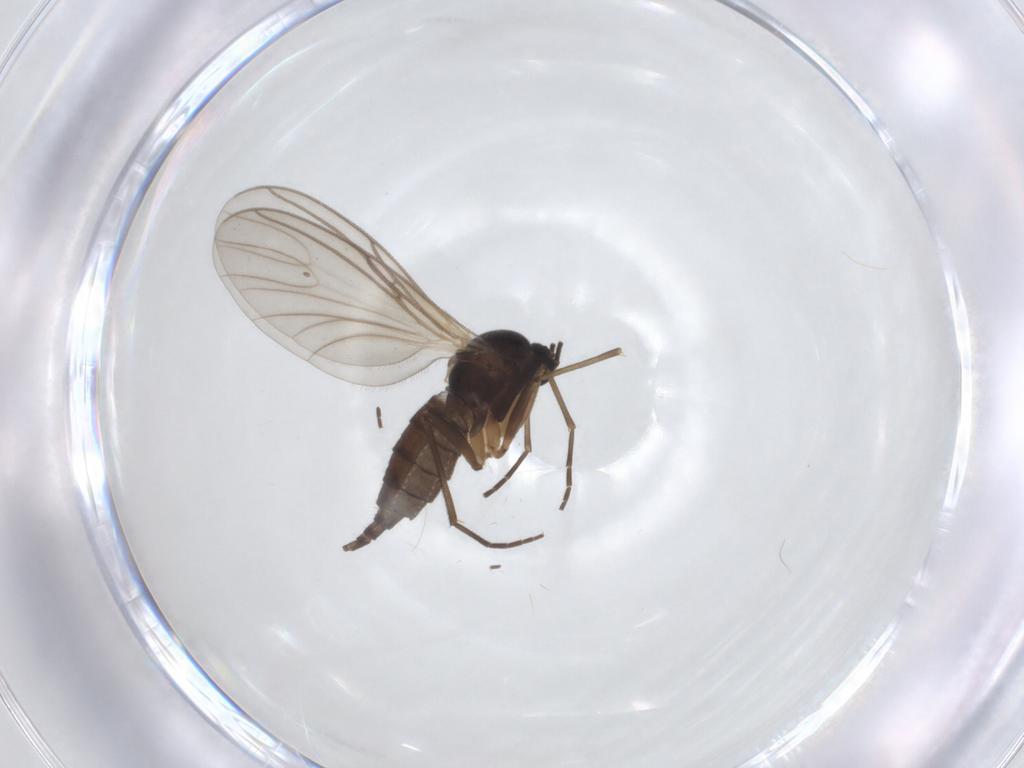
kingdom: Animalia
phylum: Arthropoda
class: Insecta
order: Diptera
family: Sciaridae
